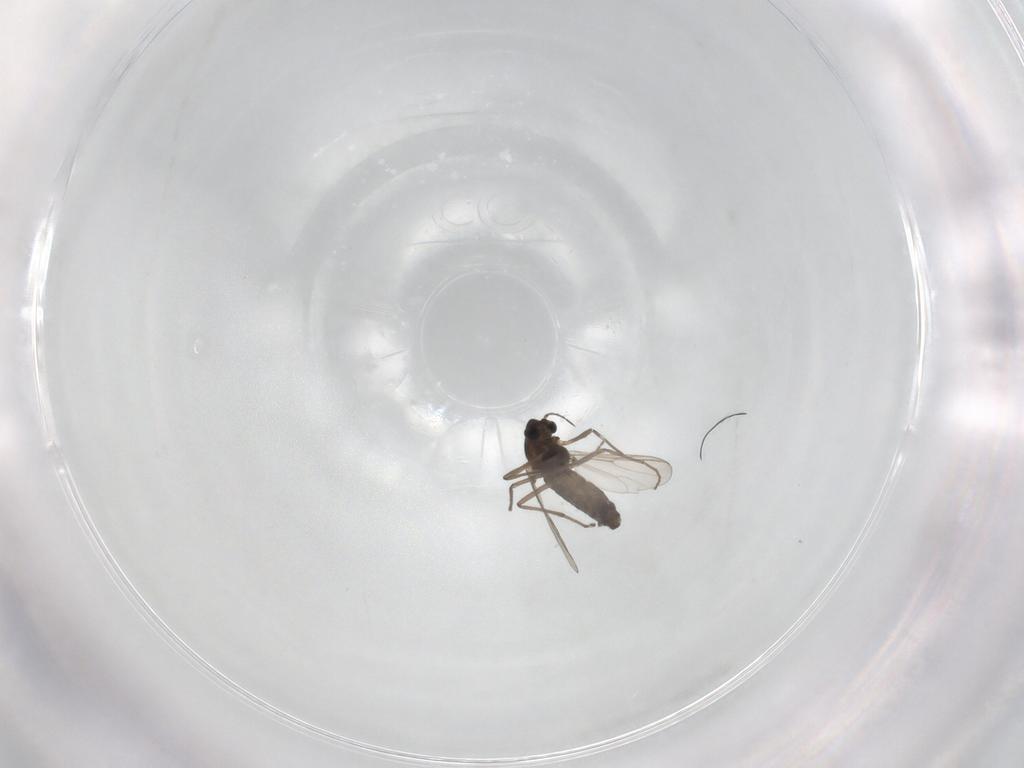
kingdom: Animalia
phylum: Arthropoda
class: Insecta
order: Diptera
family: Chironomidae
